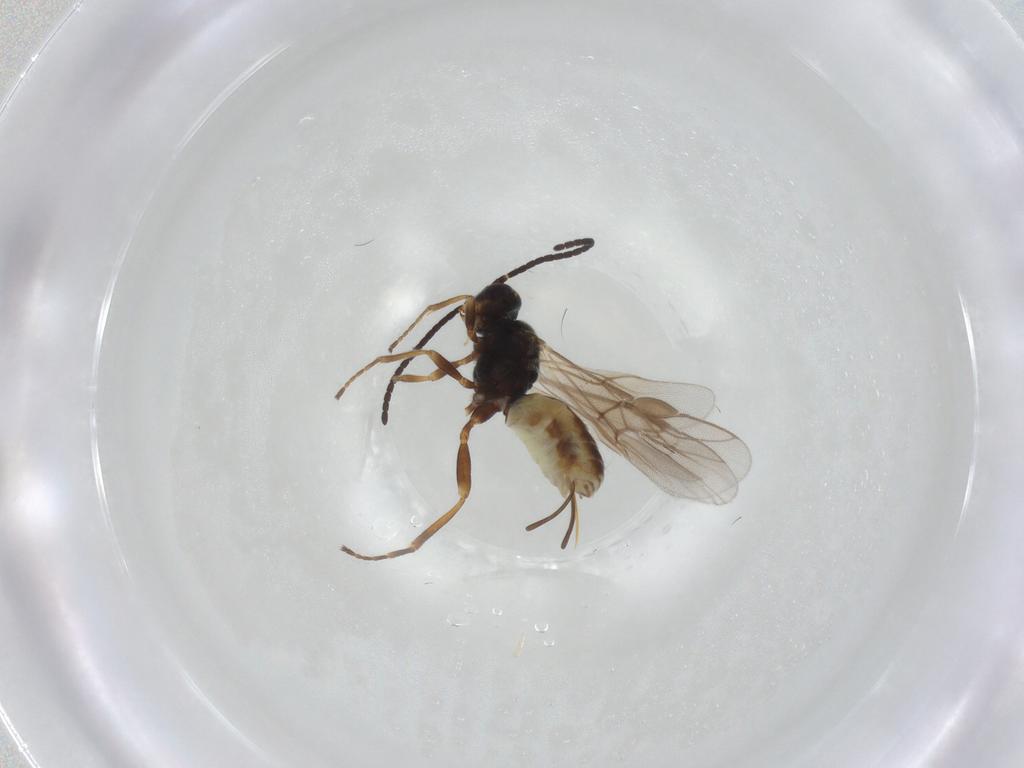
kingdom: Animalia
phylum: Arthropoda
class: Insecta
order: Hymenoptera
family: Braconidae
